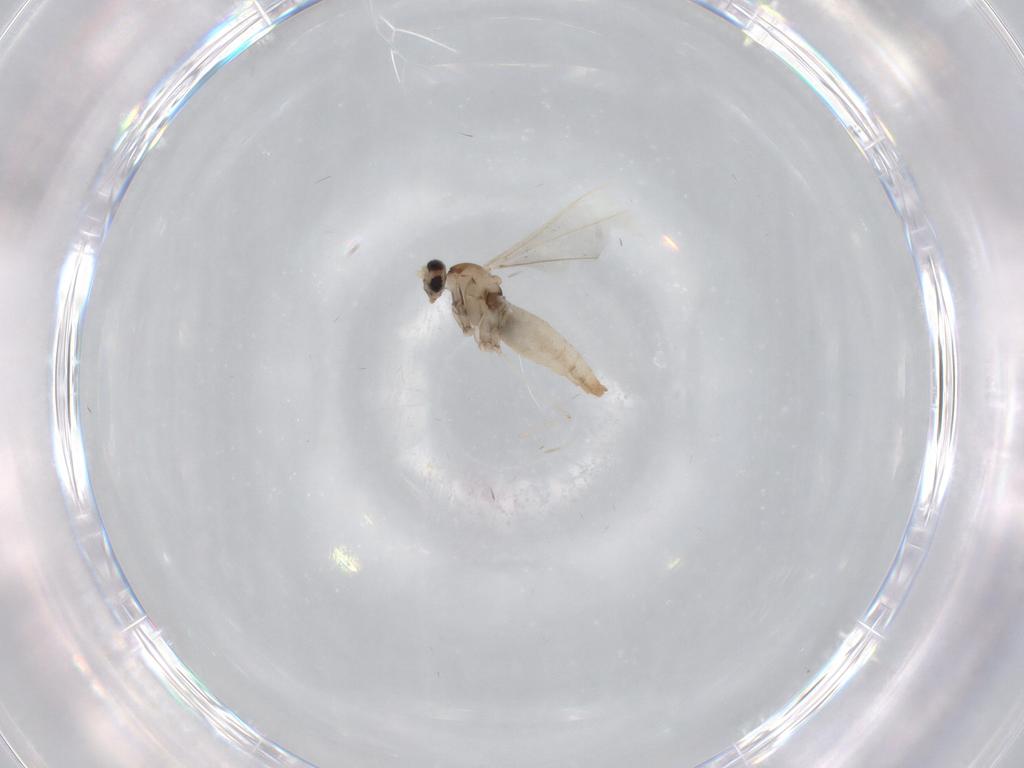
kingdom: Animalia
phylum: Arthropoda
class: Insecta
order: Diptera
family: Cecidomyiidae
